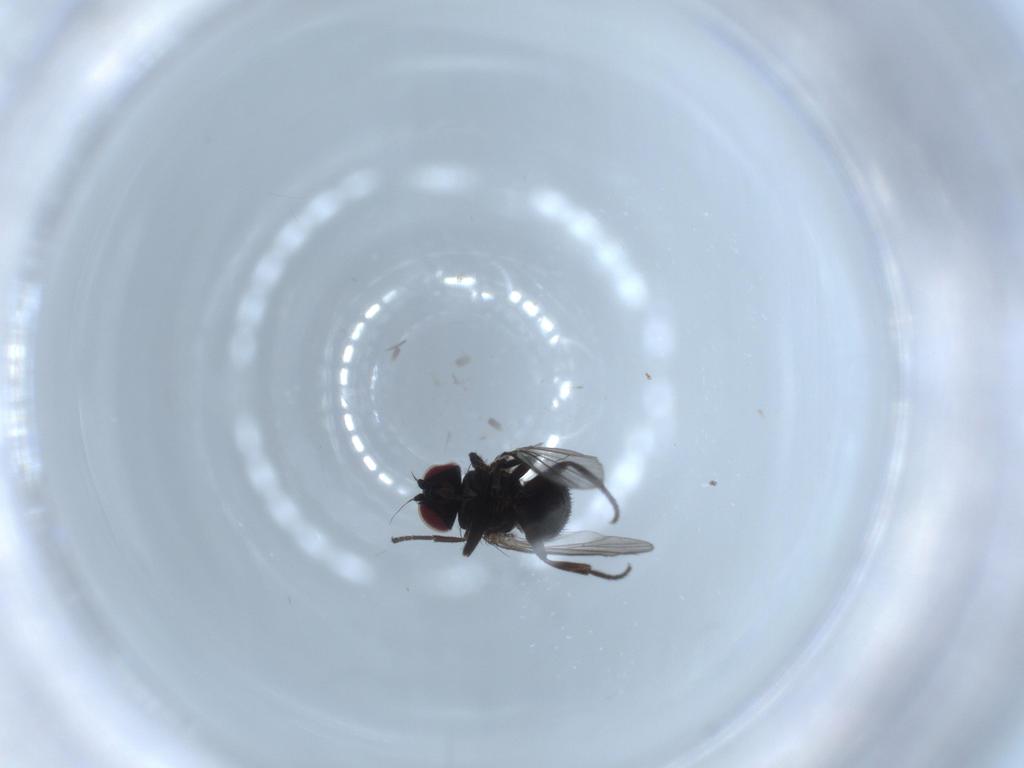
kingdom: Animalia
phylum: Arthropoda
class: Insecta
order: Diptera
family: Agromyzidae
